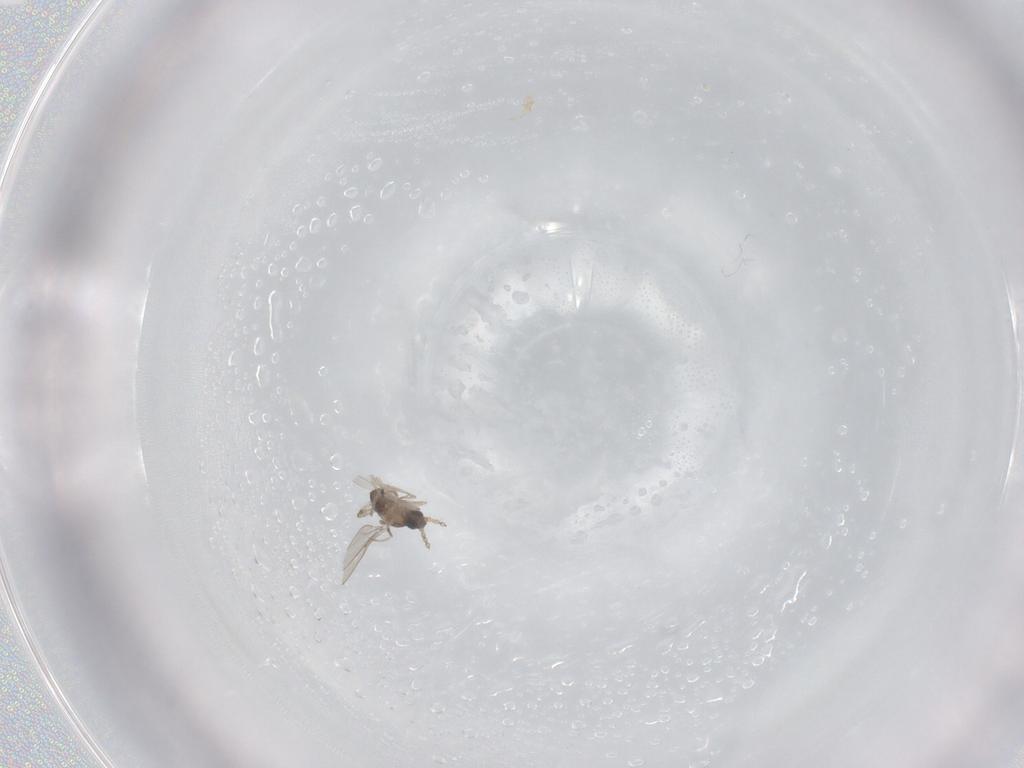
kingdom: Animalia
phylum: Arthropoda
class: Insecta
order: Diptera
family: Cecidomyiidae
